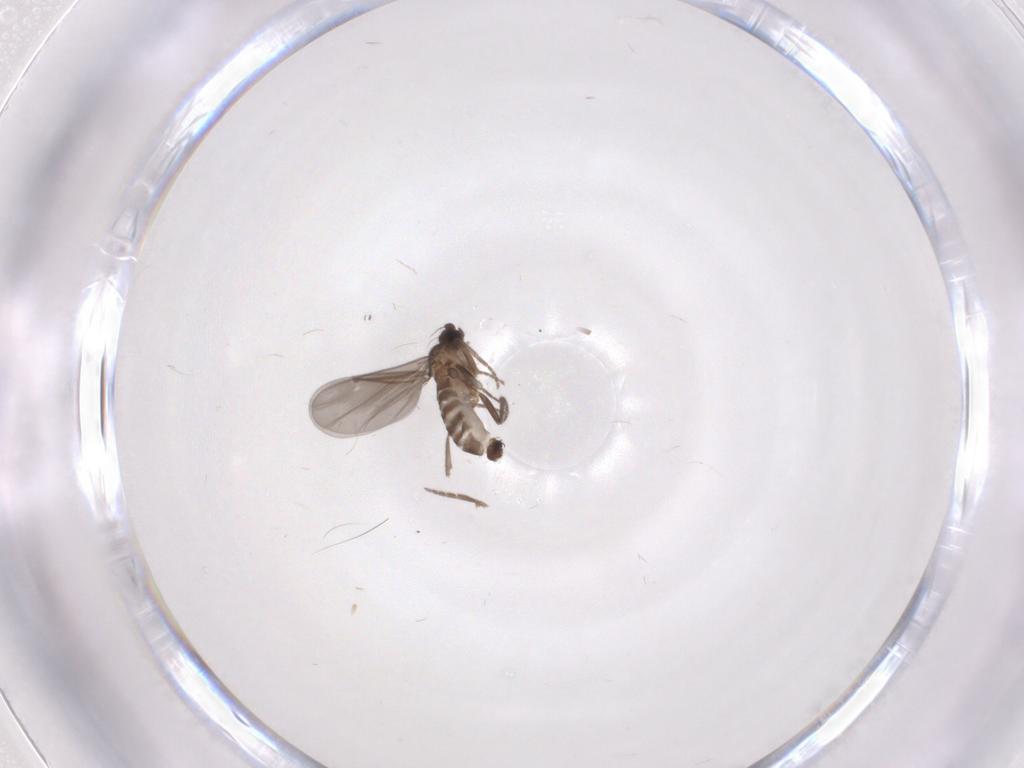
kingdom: Animalia
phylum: Arthropoda
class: Insecta
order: Diptera
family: Phoridae
